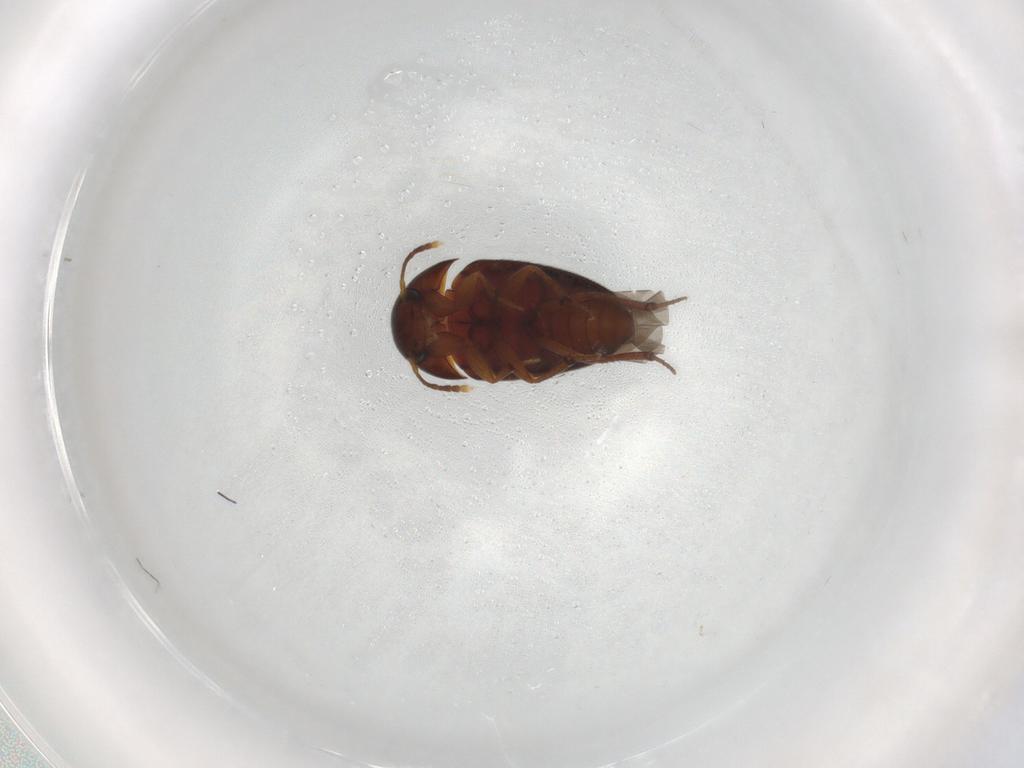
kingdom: Animalia
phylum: Arthropoda
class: Insecta
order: Coleoptera
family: Leiodidae
